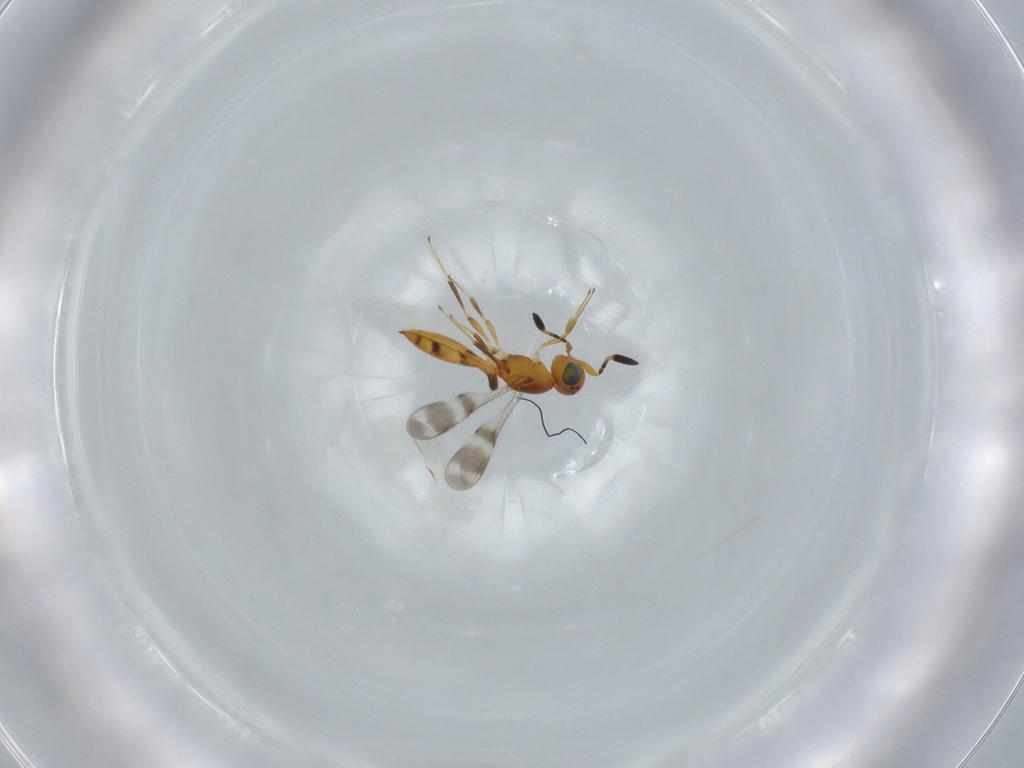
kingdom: Animalia
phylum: Arthropoda
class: Insecta
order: Hymenoptera
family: Scelionidae
